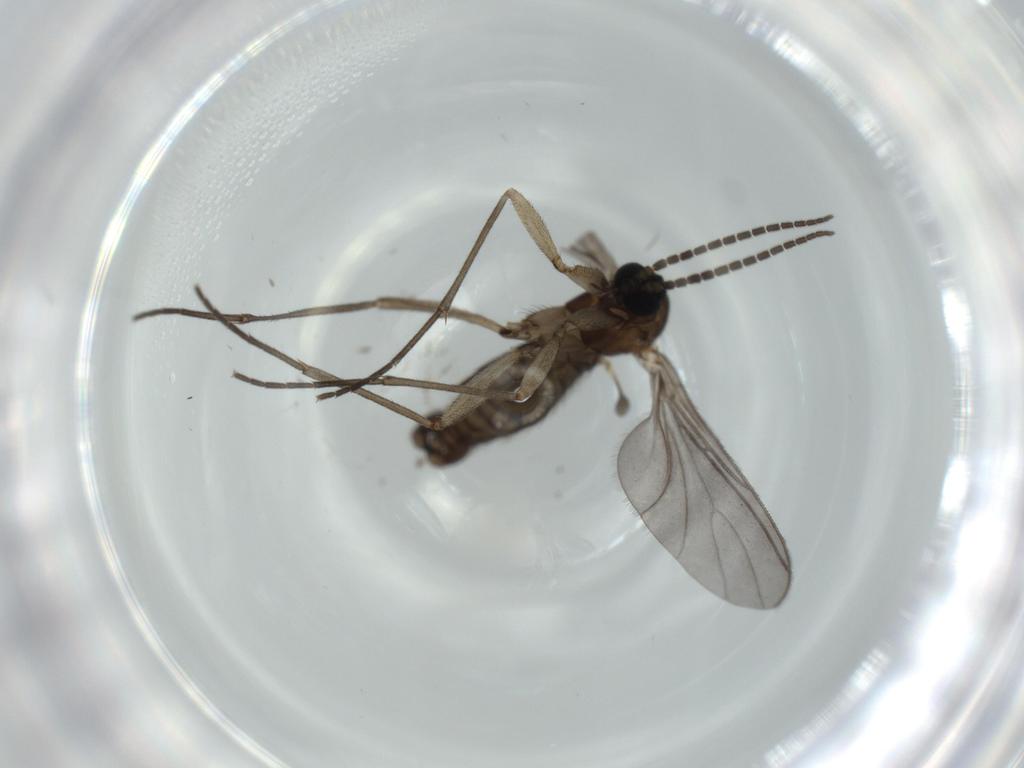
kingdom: Animalia
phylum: Arthropoda
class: Insecta
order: Diptera
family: Sciaridae
